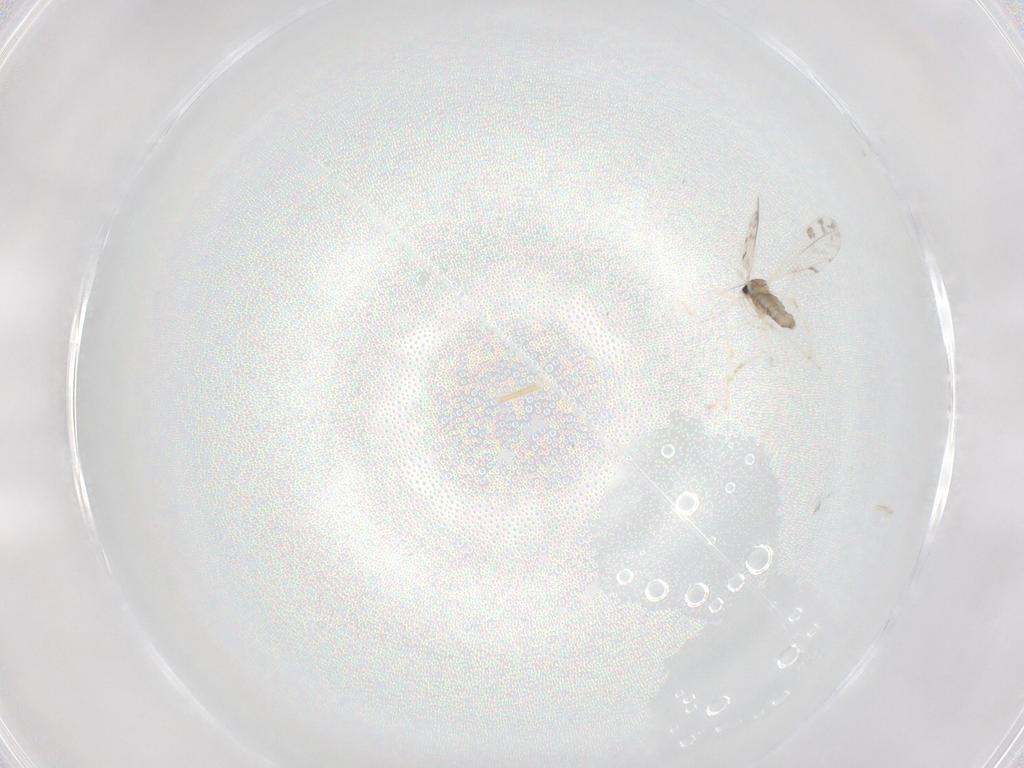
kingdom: Animalia
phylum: Arthropoda
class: Insecta
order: Diptera
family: Cecidomyiidae
